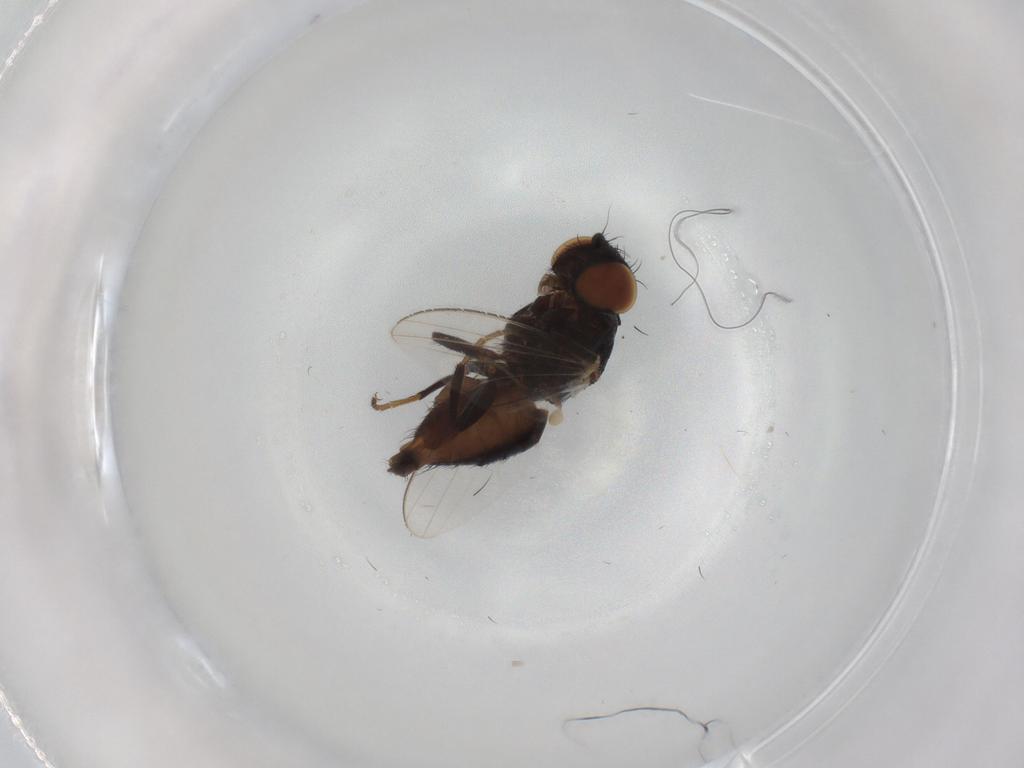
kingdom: Animalia
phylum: Arthropoda
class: Insecta
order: Diptera
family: Milichiidae
